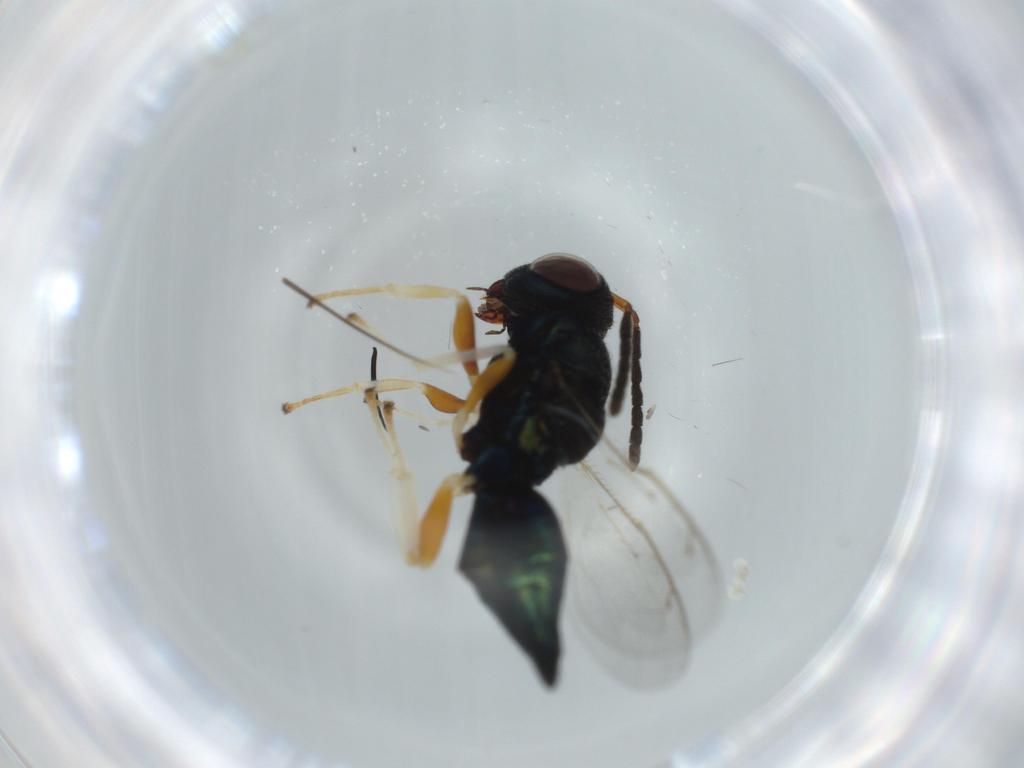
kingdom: Animalia
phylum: Arthropoda
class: Insecta
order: Hymenoptera
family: Pteromalidae
